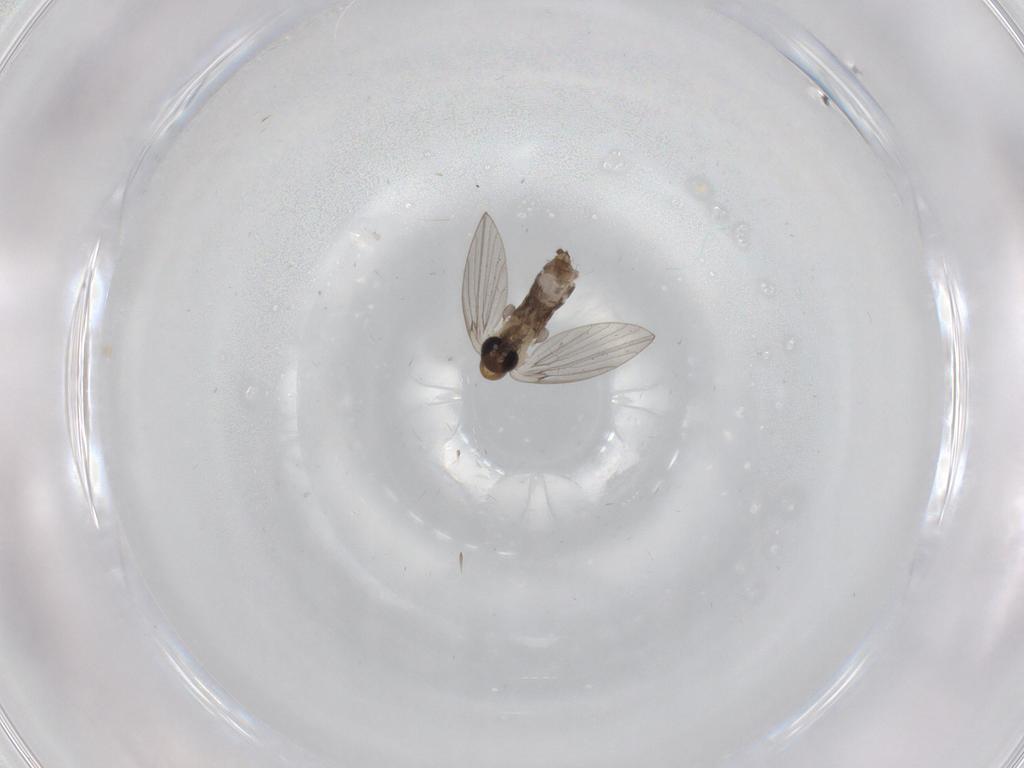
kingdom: Animalia
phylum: Arthropoda
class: Insecta
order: Diptera
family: Psychodidae
